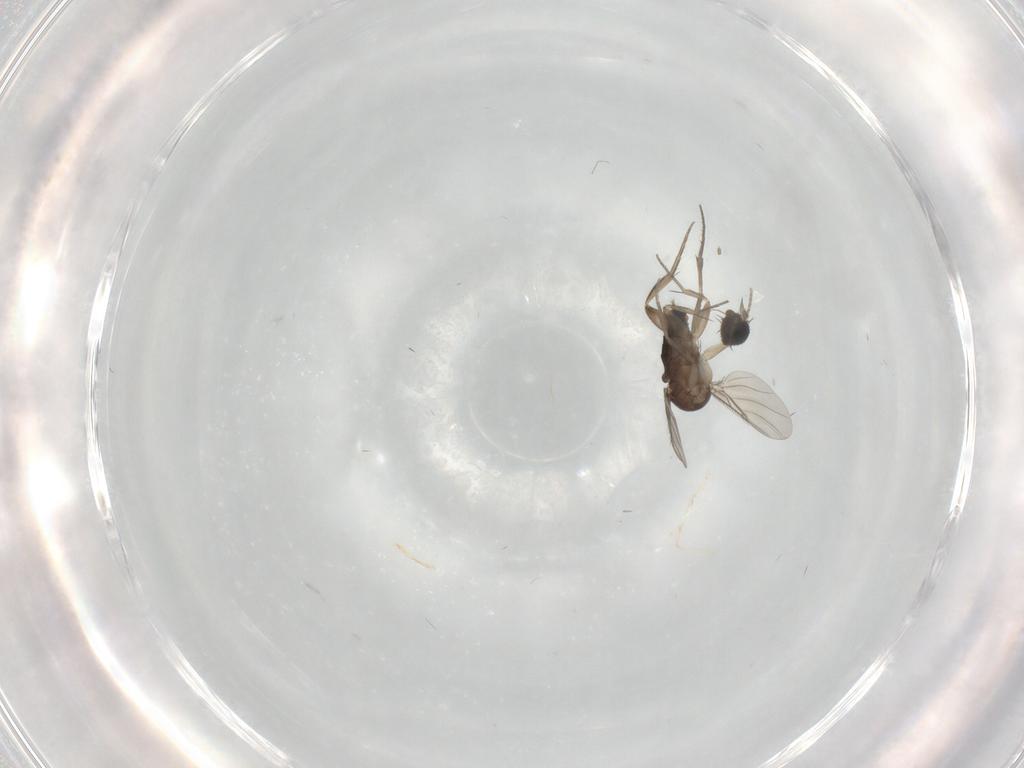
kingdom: Animalia
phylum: Arthropoda
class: Insecta
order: Diptera
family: Phoridae
